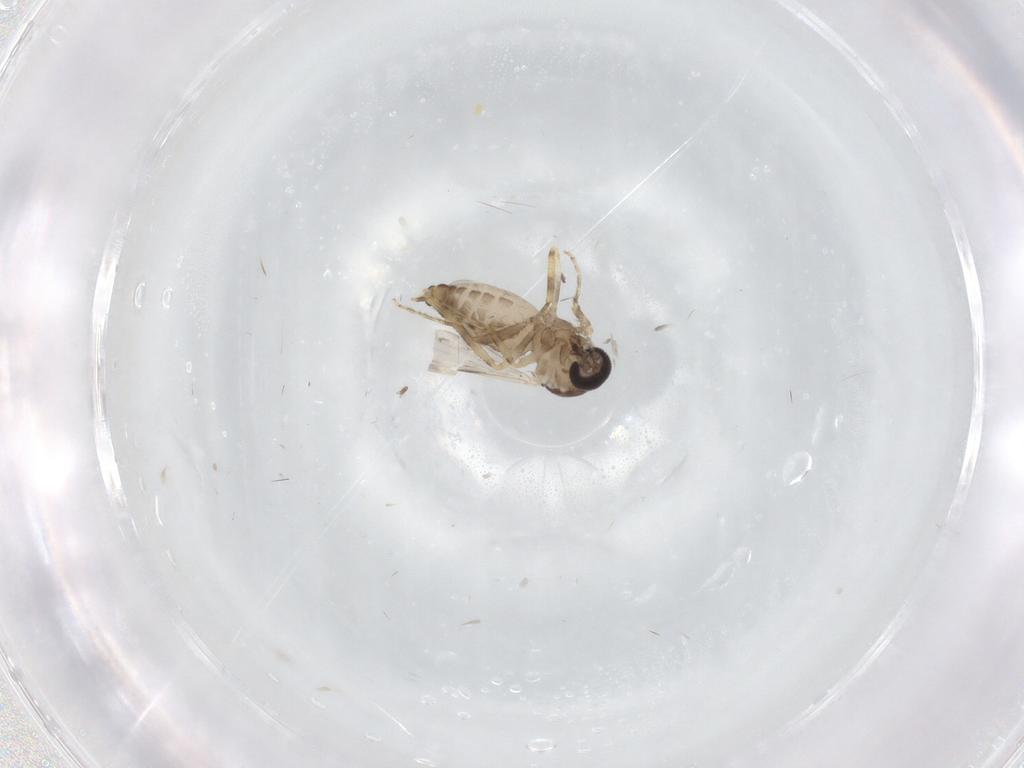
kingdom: Animalia
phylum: Arthropoda
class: Insecta
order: Diptera
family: Ceratopogonidae
